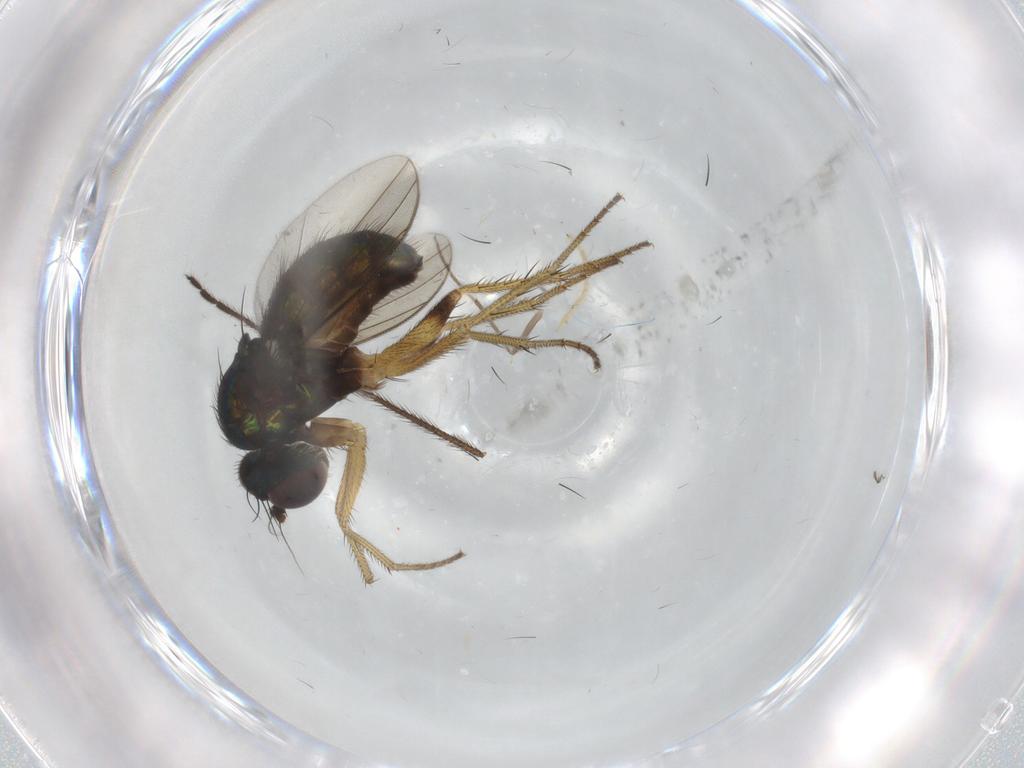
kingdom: Animalia
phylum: Arthropoda
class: Insecta
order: Diptera
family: Dolichopodidae
